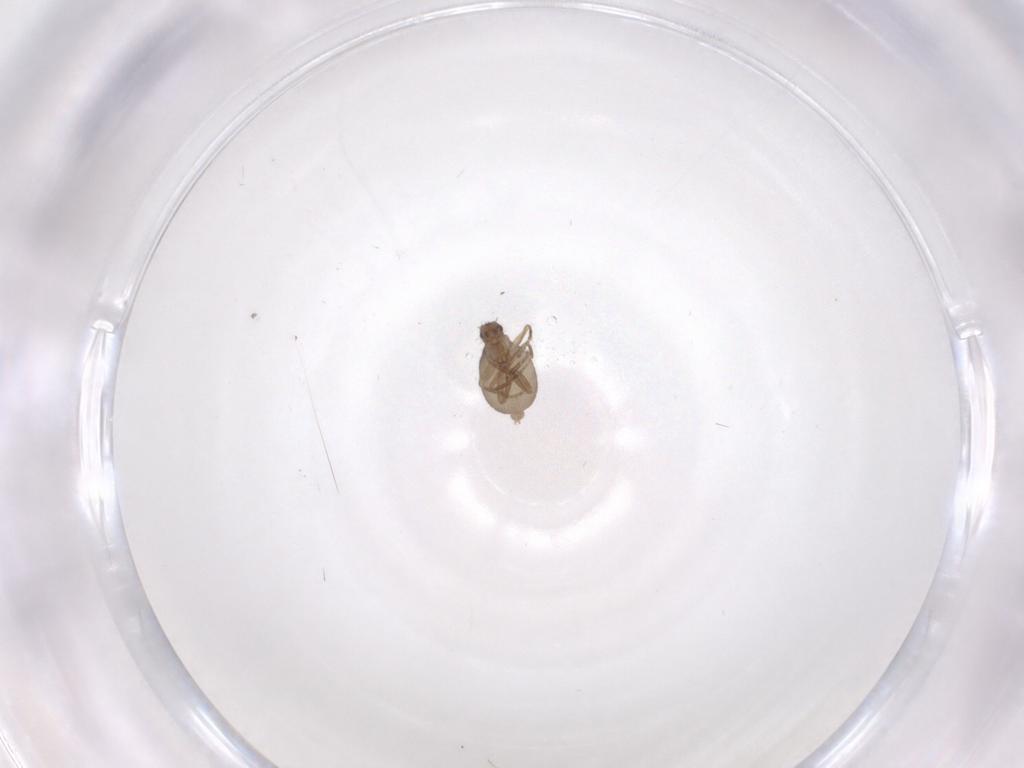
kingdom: Animalia
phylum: Arthropoda
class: Insecta
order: Diptera
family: Phoridae
